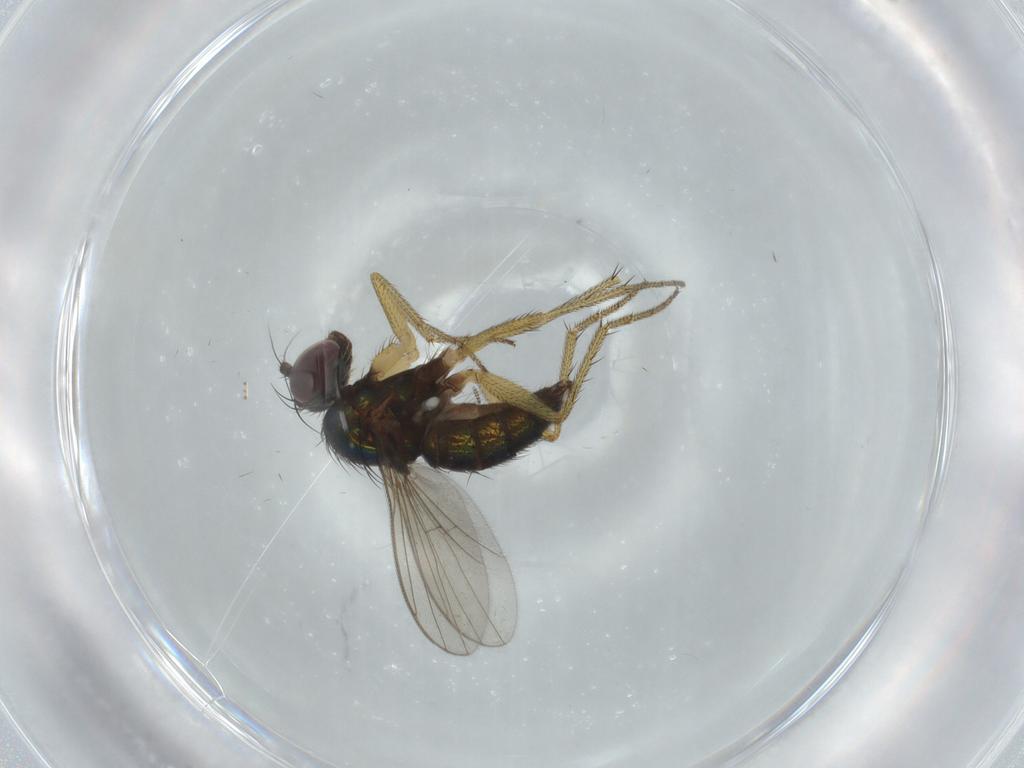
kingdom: Animalia
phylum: Arthropoda
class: Insecta
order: Diptera
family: Dolichopodidae
